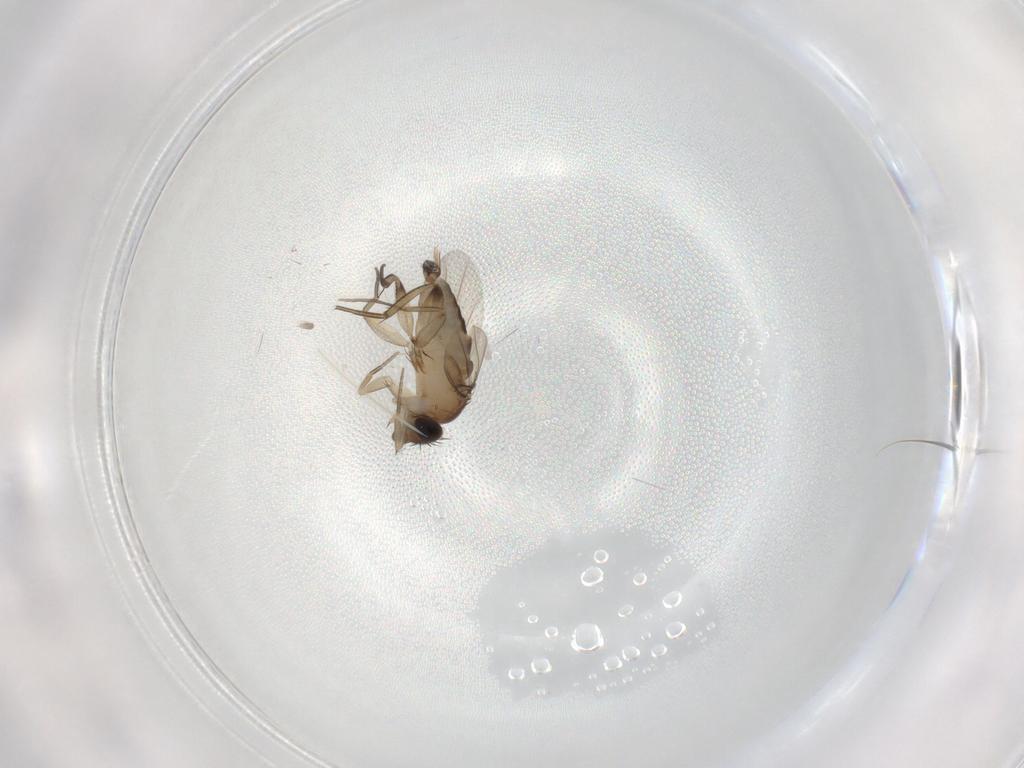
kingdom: Animalia
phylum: Arthropoda
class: Insecta
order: Diptera
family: Phoridae
